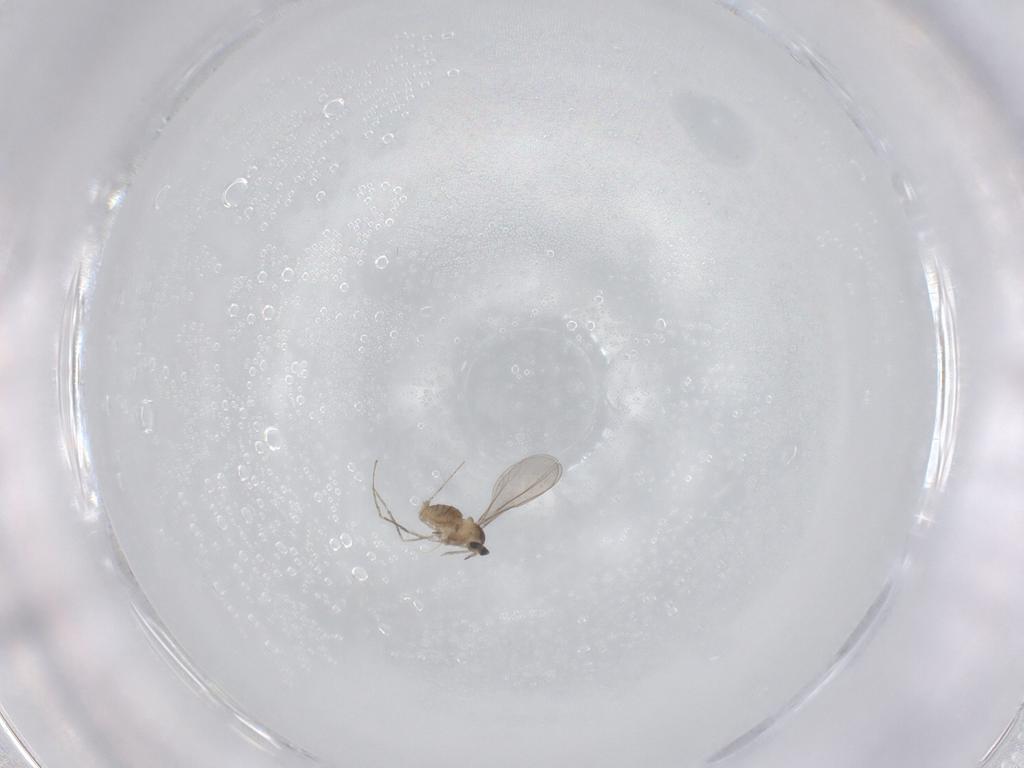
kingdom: Animalia
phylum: Arthropoda
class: Insecta
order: Diptera
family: Cecidomyiidae
